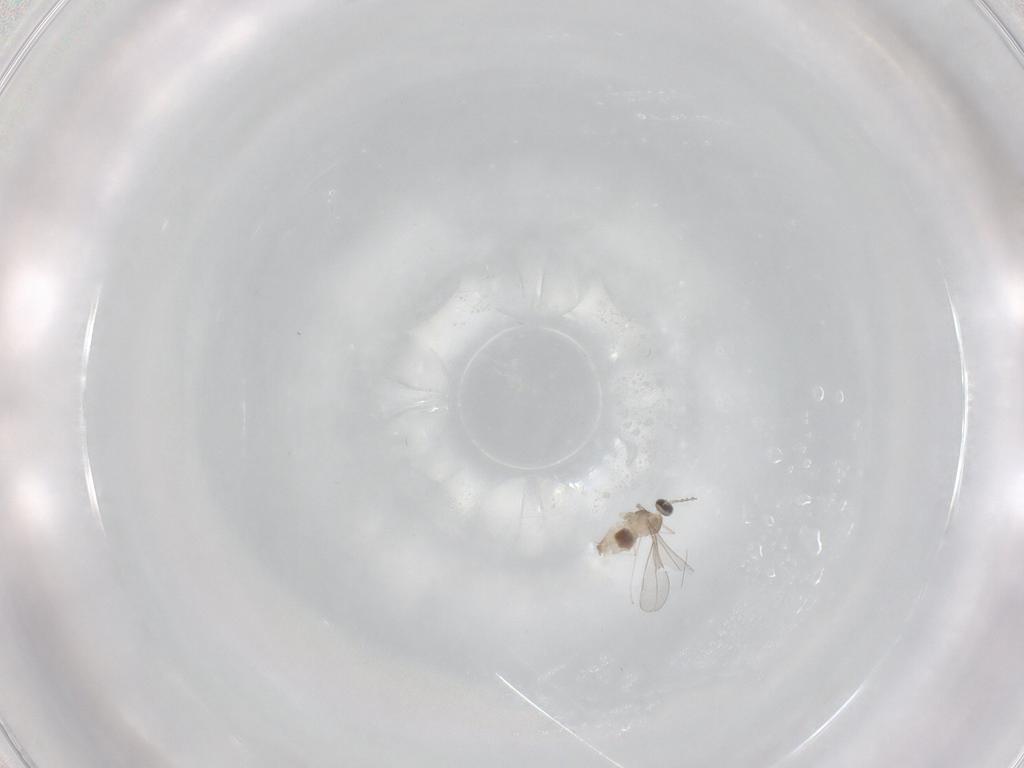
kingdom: Animalia
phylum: Arthropoda
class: Insecta
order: Diptera
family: Cecidomyiidae
